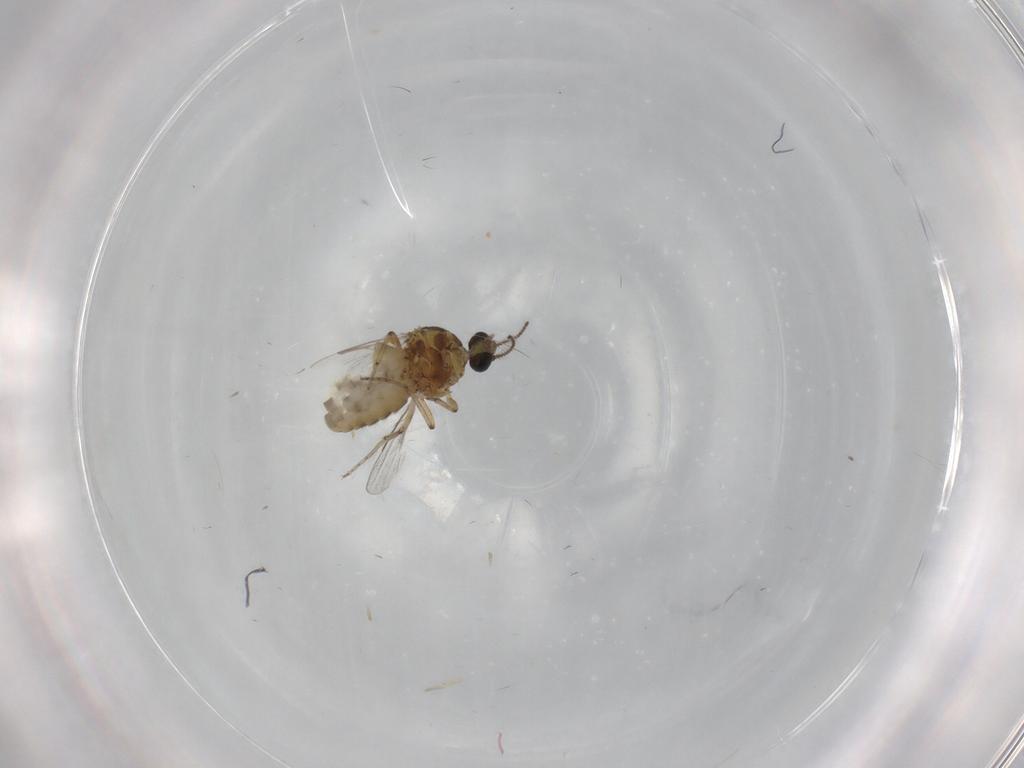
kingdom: Animalia
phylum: Arthropoda
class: Insecta
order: Diptera
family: Ceratopogonidae
